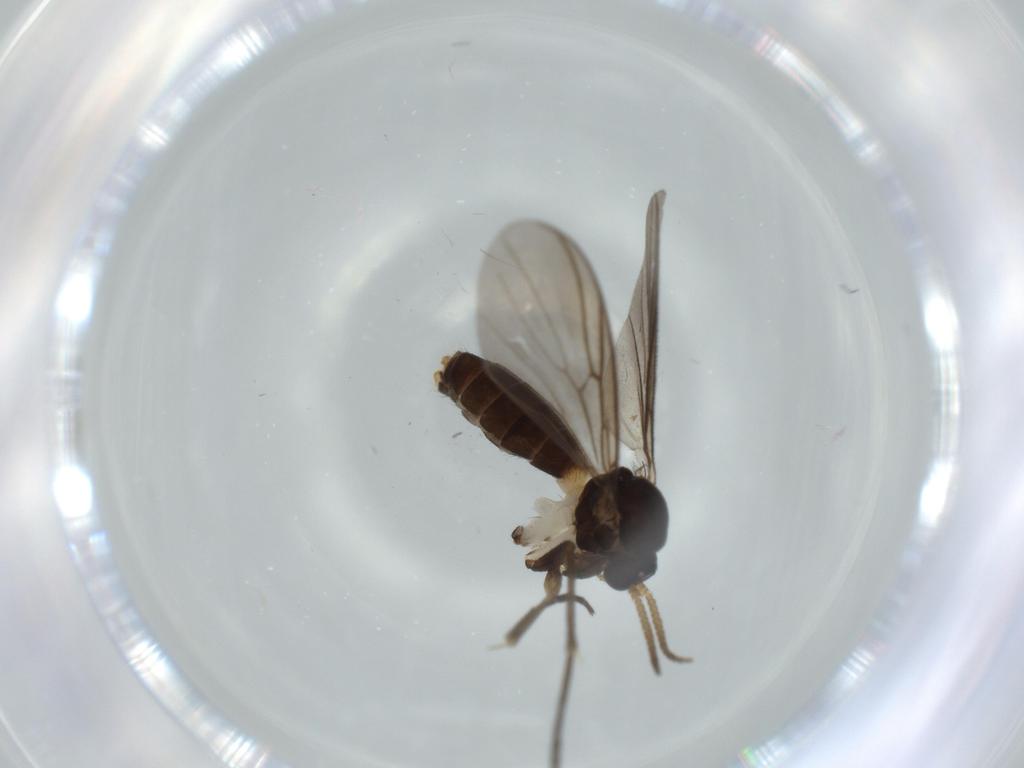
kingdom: Animalia
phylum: Arthropoda
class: Insecta
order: Diptera
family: Mycetophilidae
